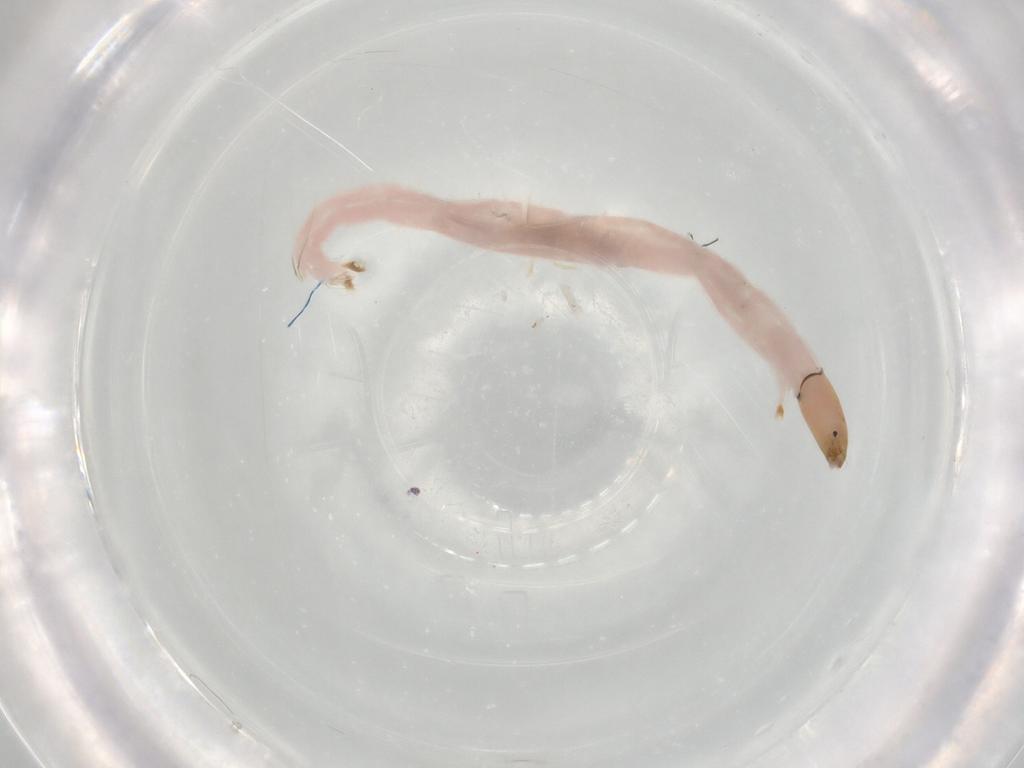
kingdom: Animalia
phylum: Arthropoda
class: Insecta
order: Diptera
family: Chironomidae
